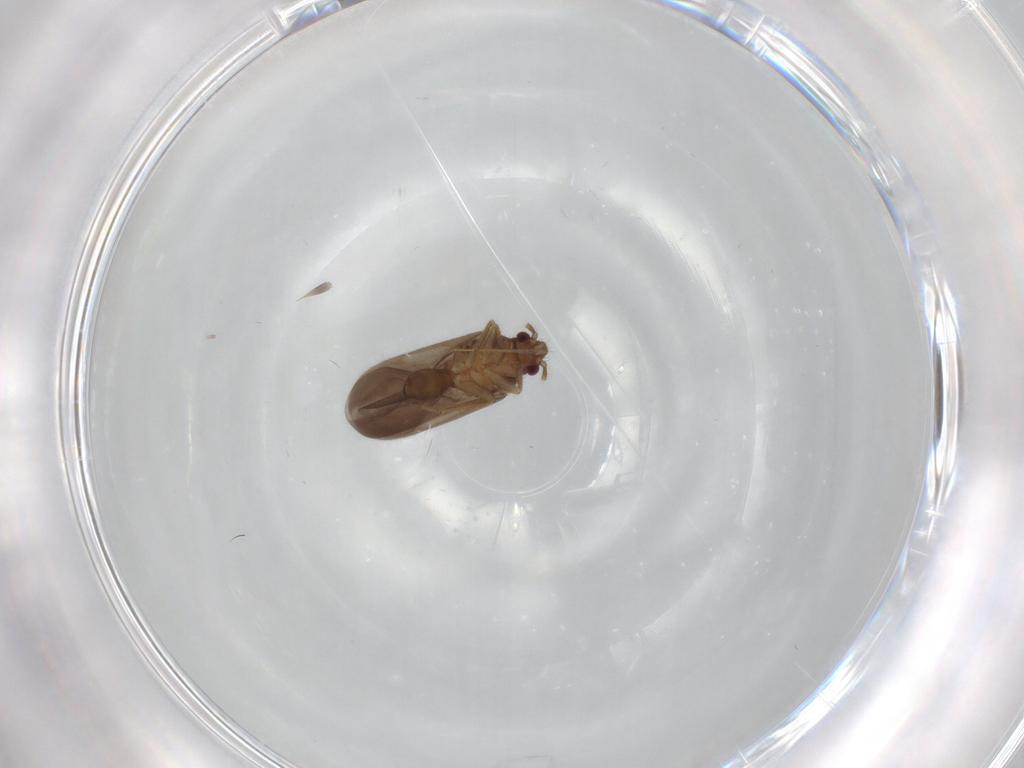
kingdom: Animalia
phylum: Arthropoda
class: Insecta
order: Hemiptera
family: Ceratocombidae
